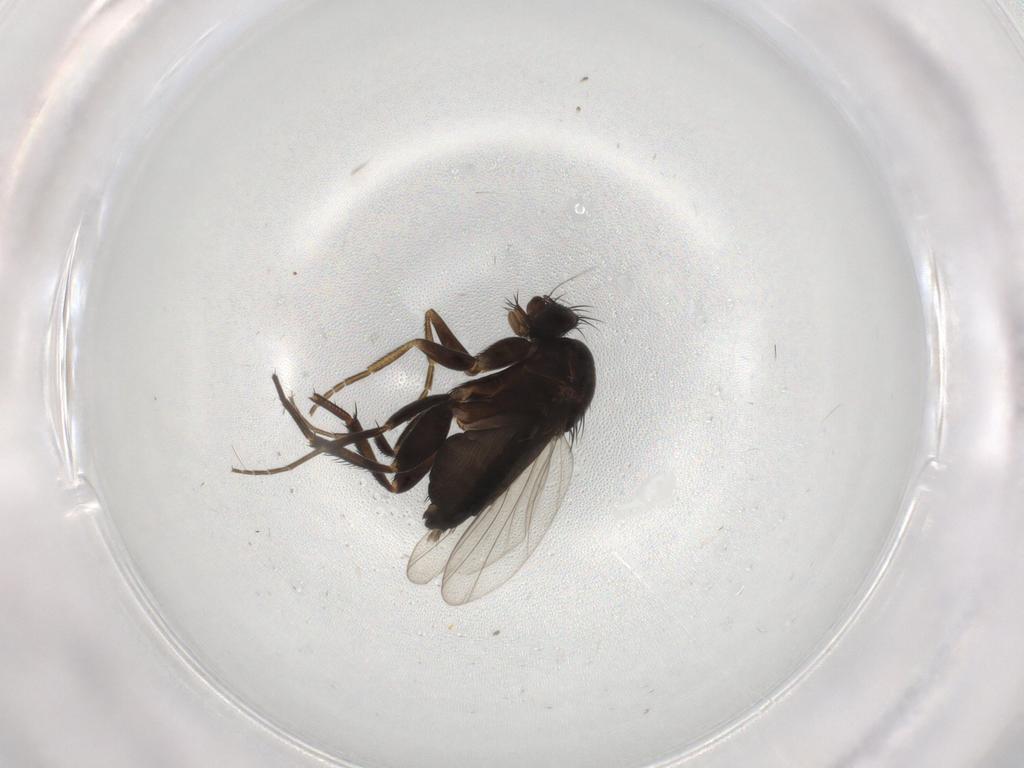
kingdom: Animalia
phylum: Arthropoda
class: Insecta
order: Diptera
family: Phoridae
